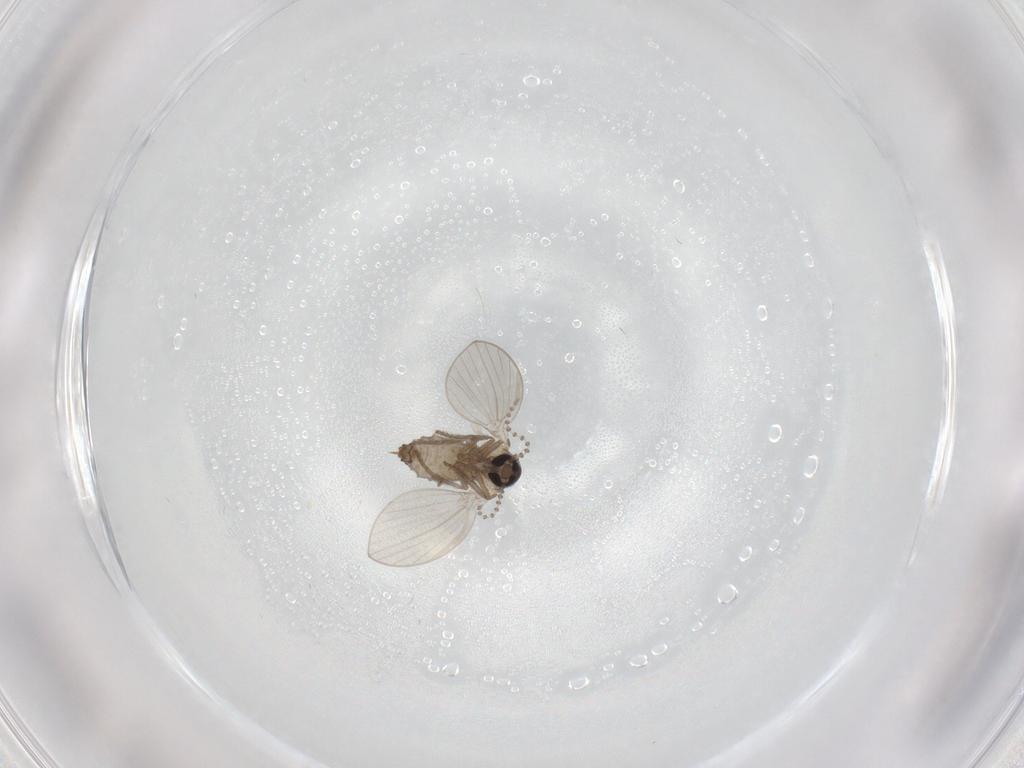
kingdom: Animalia
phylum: Arthropoda
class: Insecta
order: Diptera
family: Psychodidae
